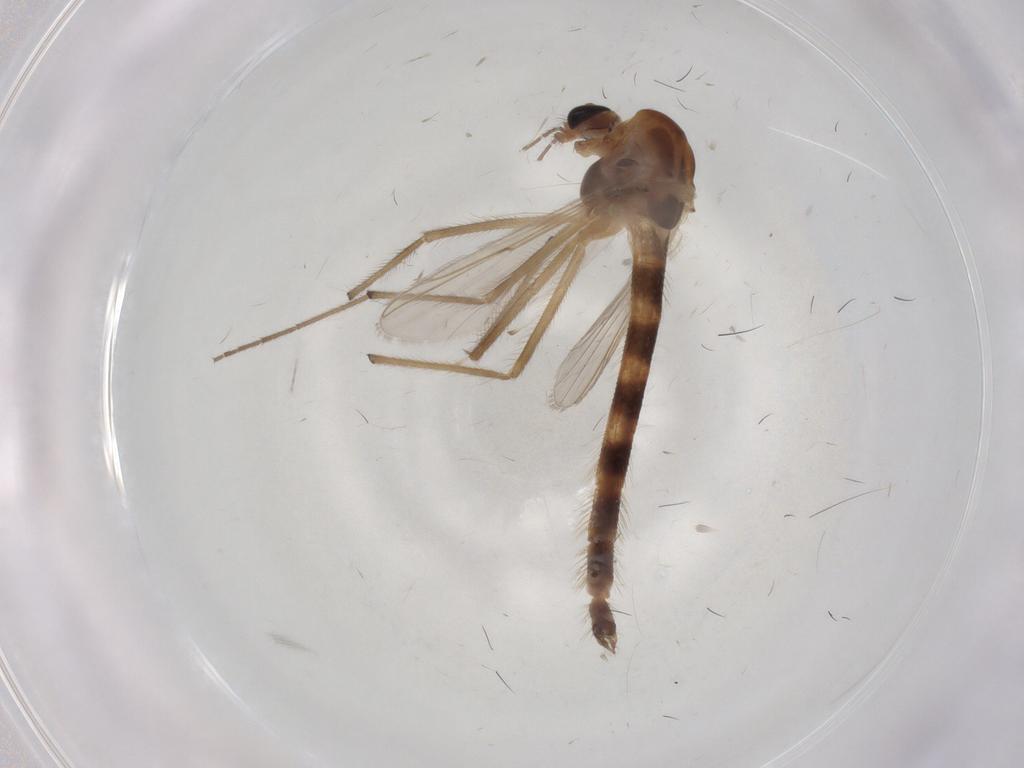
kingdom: Animalia
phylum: Arthropoda
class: Insecta
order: Diptera
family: Chironomidae
